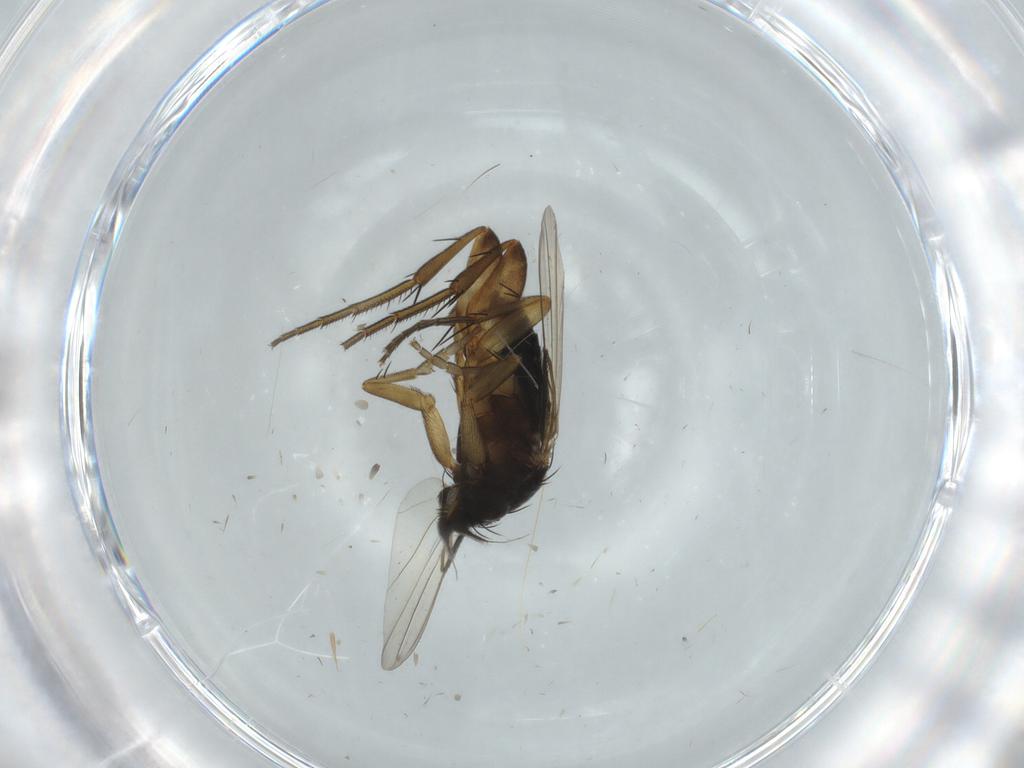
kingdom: Animalia
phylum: Arthropoda
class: Insecta
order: Diptera
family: Phoridae
